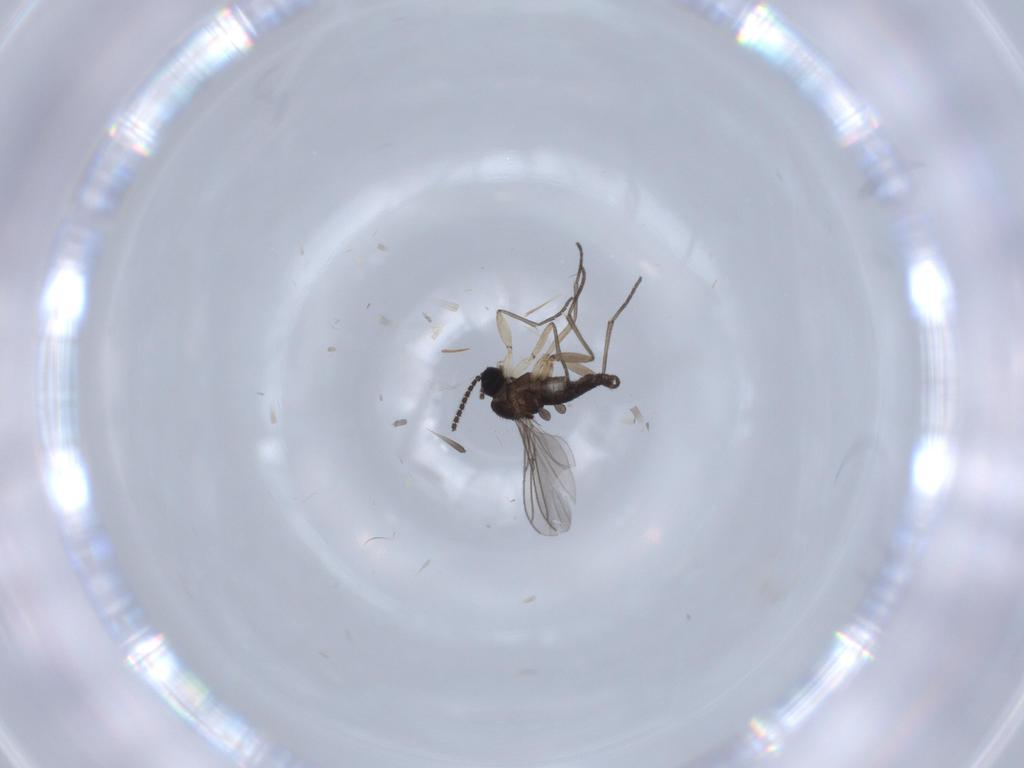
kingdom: Animalia
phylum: Arthropoda
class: Insecta
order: Diptera
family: Sciaridae
